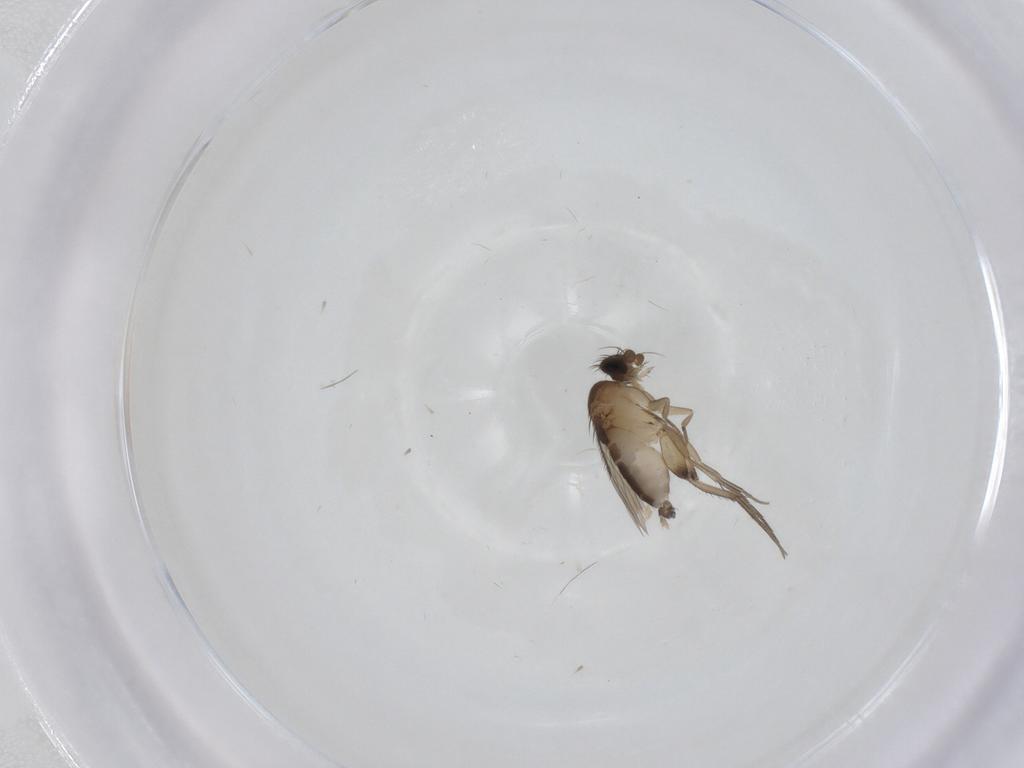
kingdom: Animalia
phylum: Arthropoda
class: Insecta
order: Diptera
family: Phoridae
